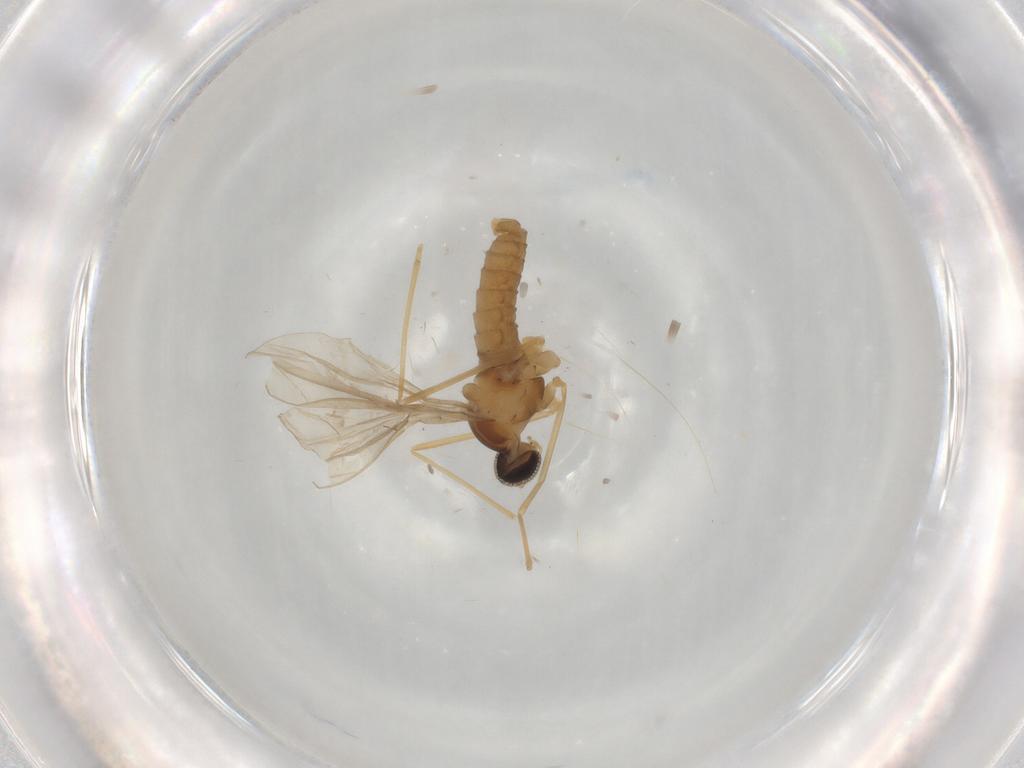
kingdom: Animalia
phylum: Arthropoda
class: Insecta
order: Diptera
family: Cecidomyiidae
